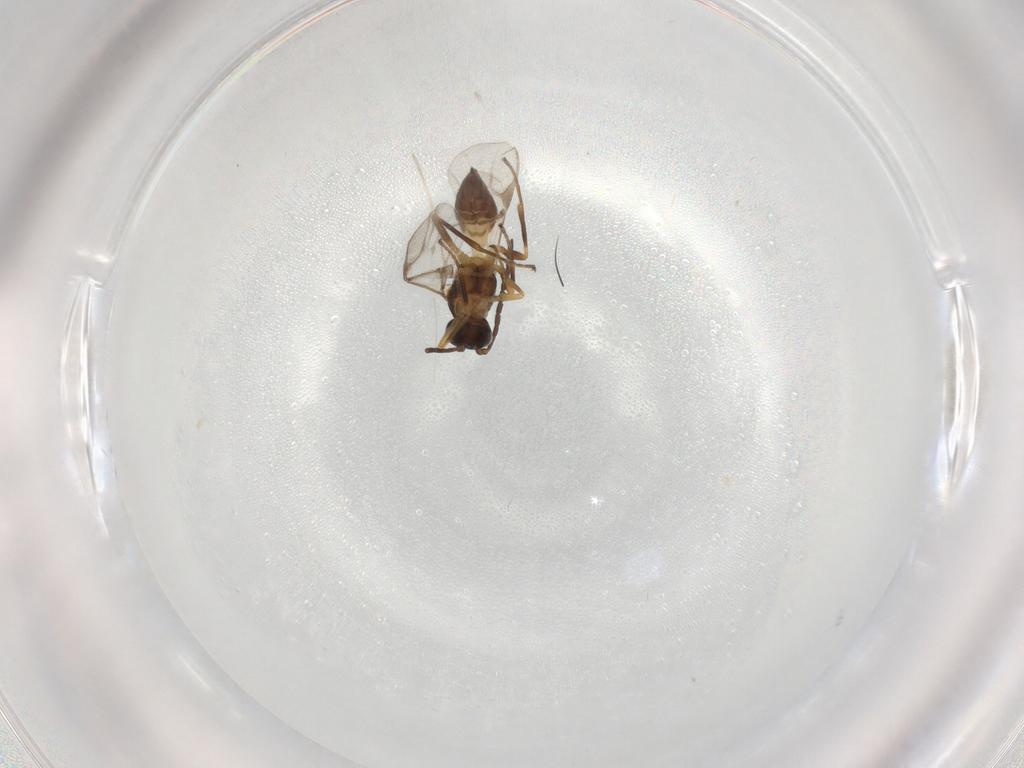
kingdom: Animalia
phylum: Arthropoda
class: Insecta
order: Hymenoptera
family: Braconidae
